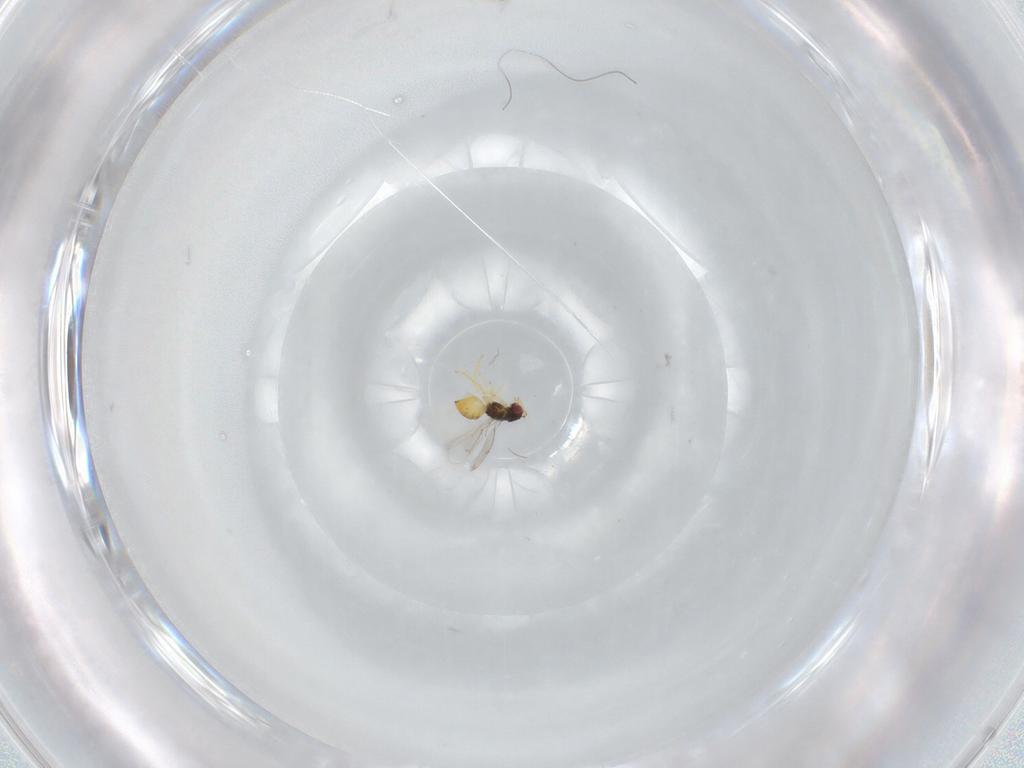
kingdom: Animalia
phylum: Arthropoda
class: Insecta
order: Hymenoptera
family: Eulophidae
